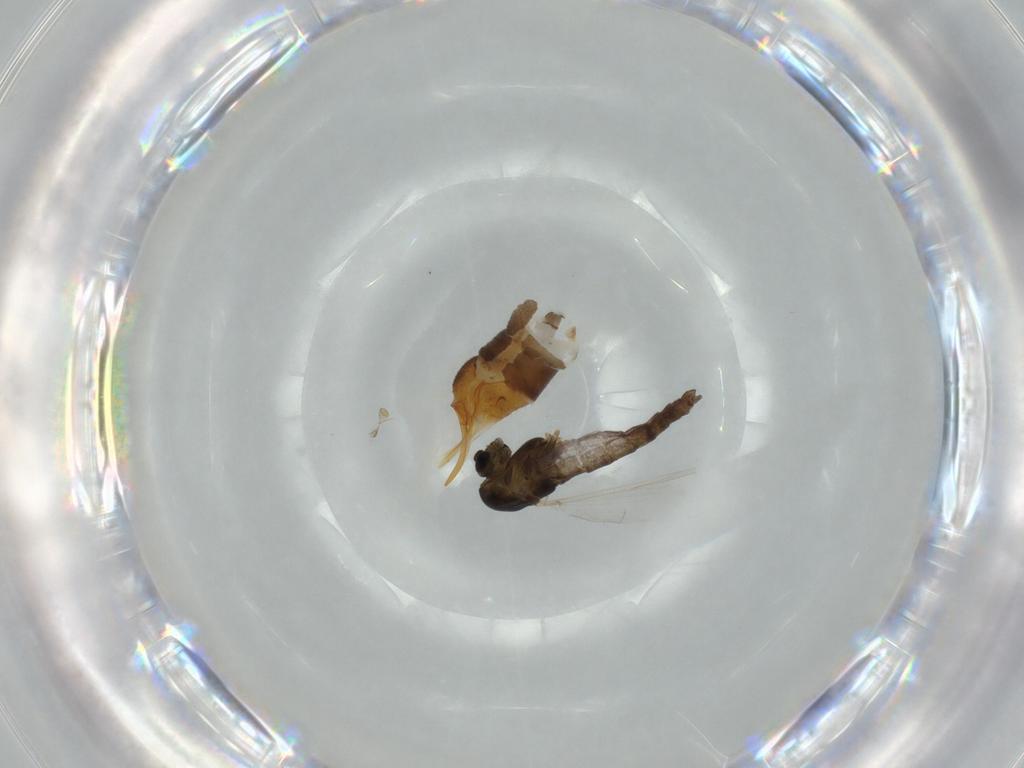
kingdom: Animalia
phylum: Arthropoda
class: Insecta
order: Diptera
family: Chironomidae
